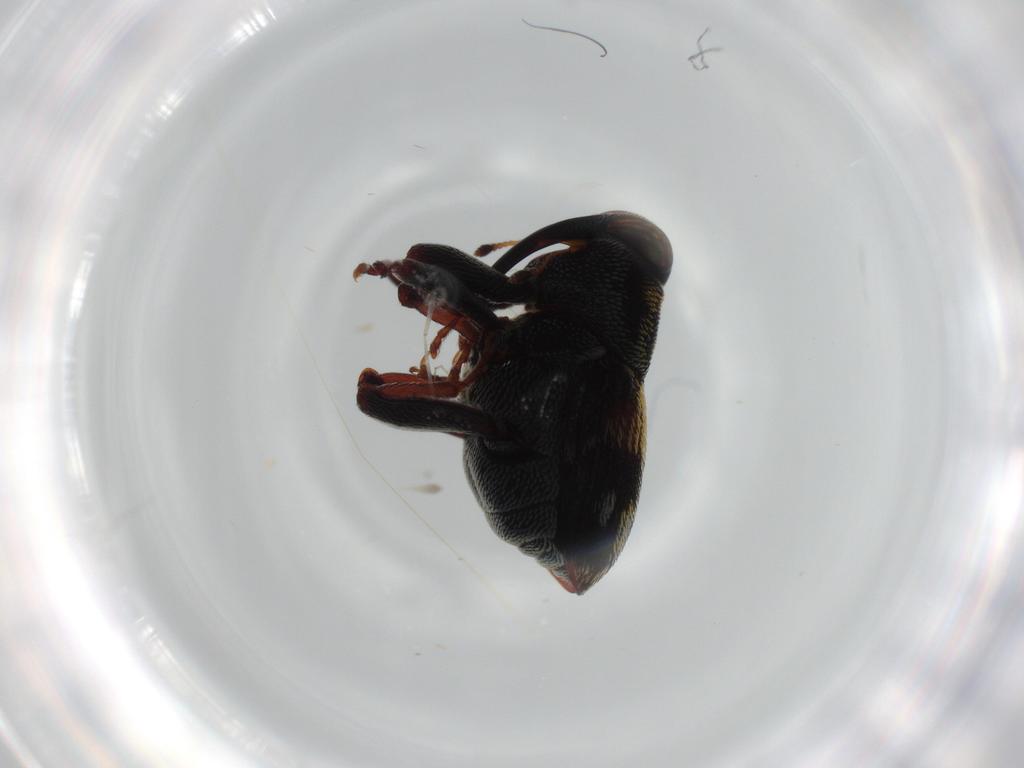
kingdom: Animalia
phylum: Arthropoda
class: Insecta
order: Coleoptera
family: Curculionidae
